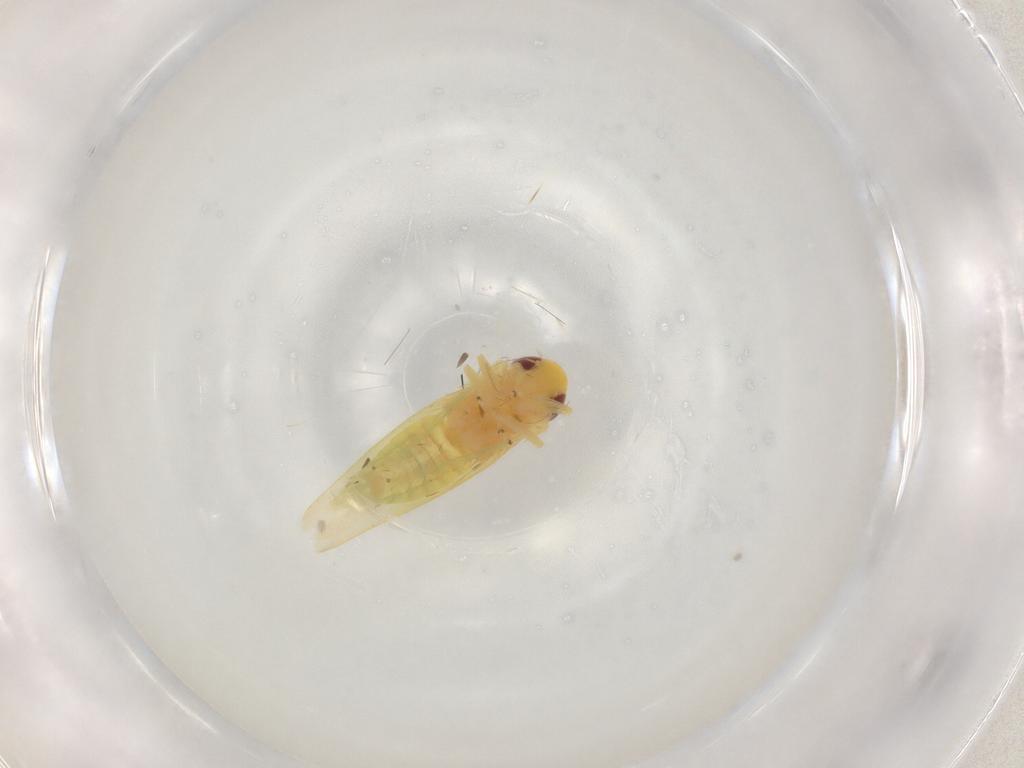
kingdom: Animalia
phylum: Arthropoda
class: Insecta
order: Hemiptera
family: Cicadellidae
